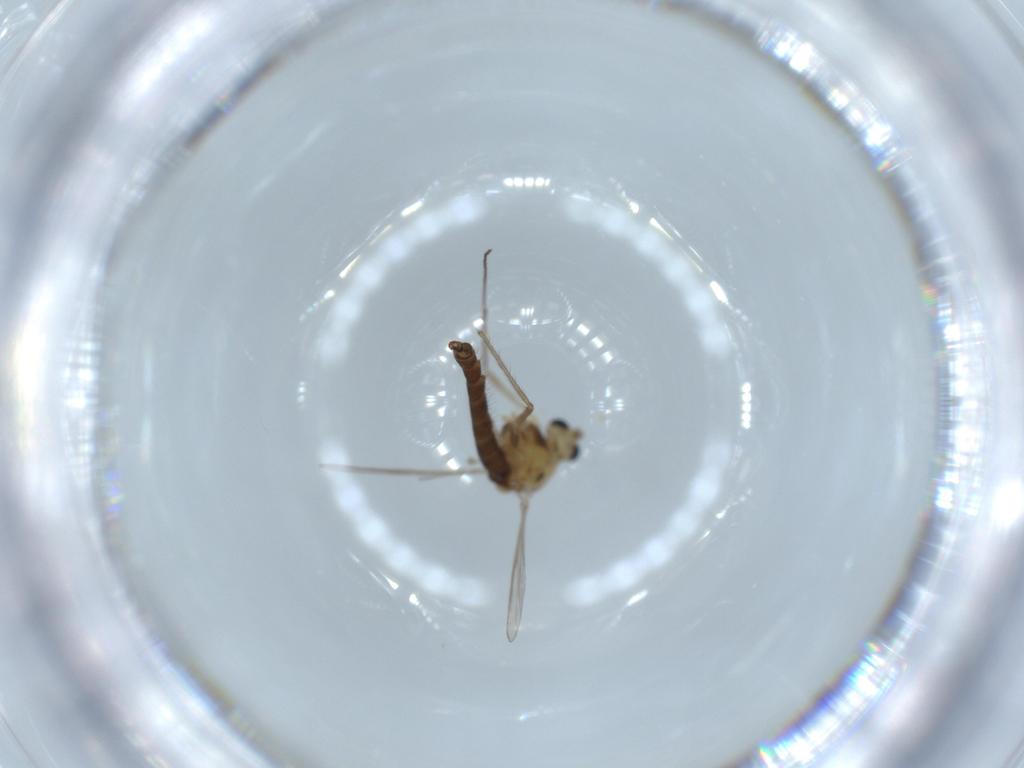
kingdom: Animalia
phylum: Arthropoda
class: Insecta
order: Diptera
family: Chironomidae
